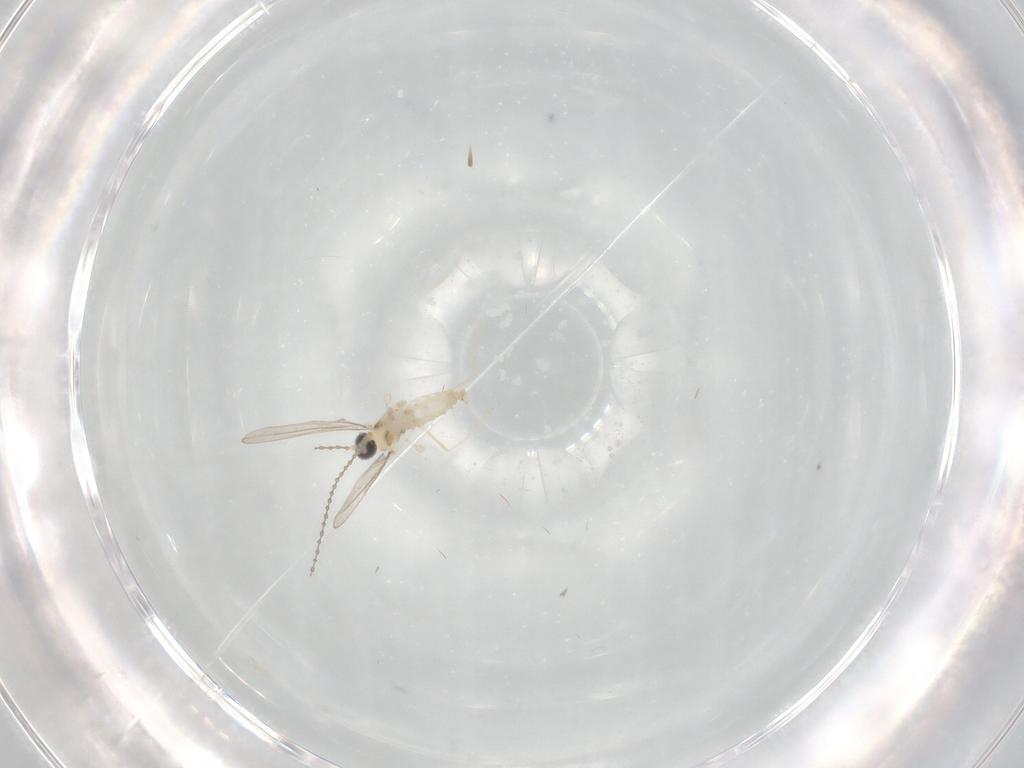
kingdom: Animalia
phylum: Arthropoda
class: Insecta
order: Diptera
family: Cecidomyiidae
